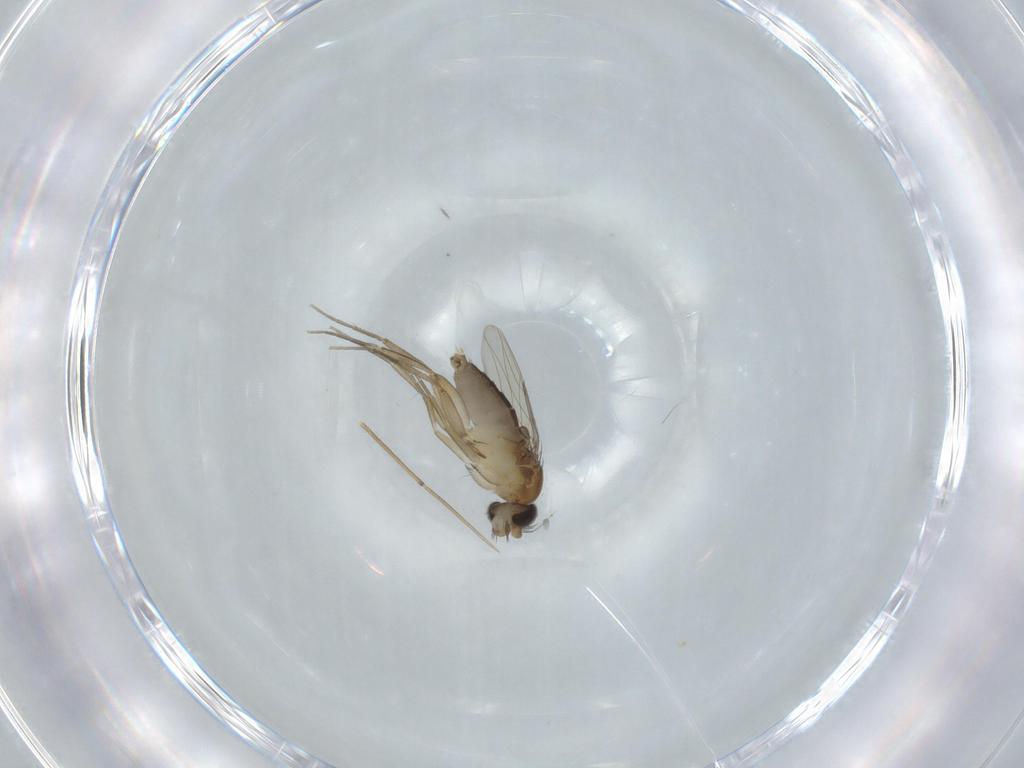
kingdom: Animalia
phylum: Arthropoda
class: Insecta
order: Diptera
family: Phoridae
